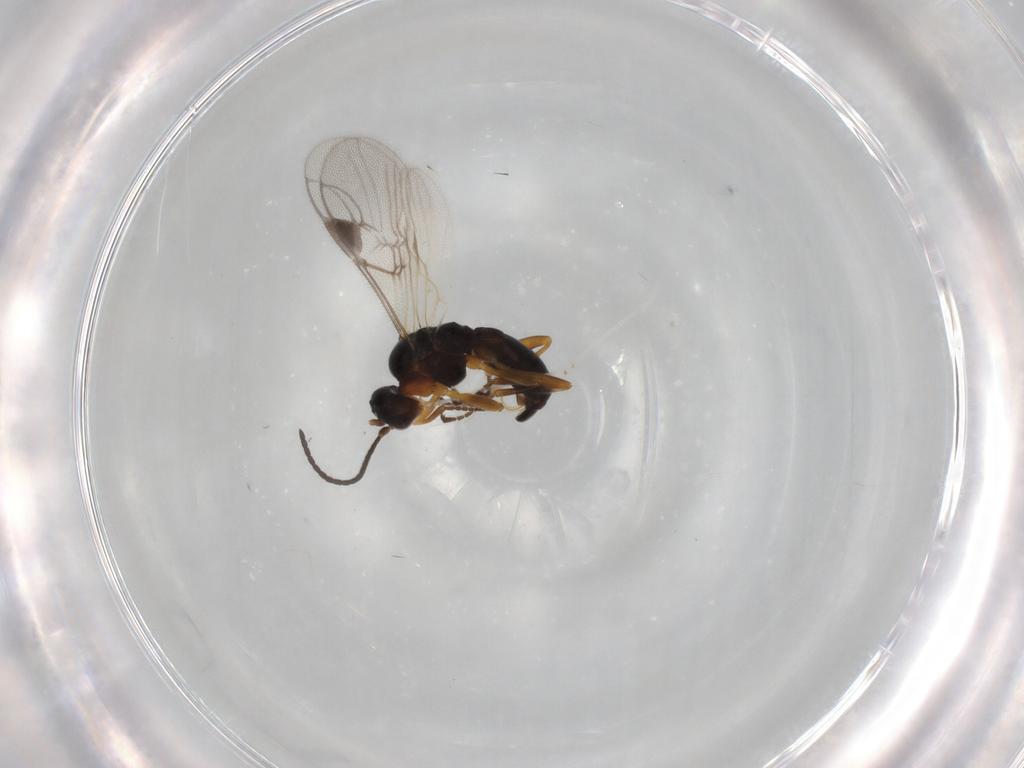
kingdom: Animalia
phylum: Arthropoda
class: Insecta
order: Hymenoptera
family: Braconidae
